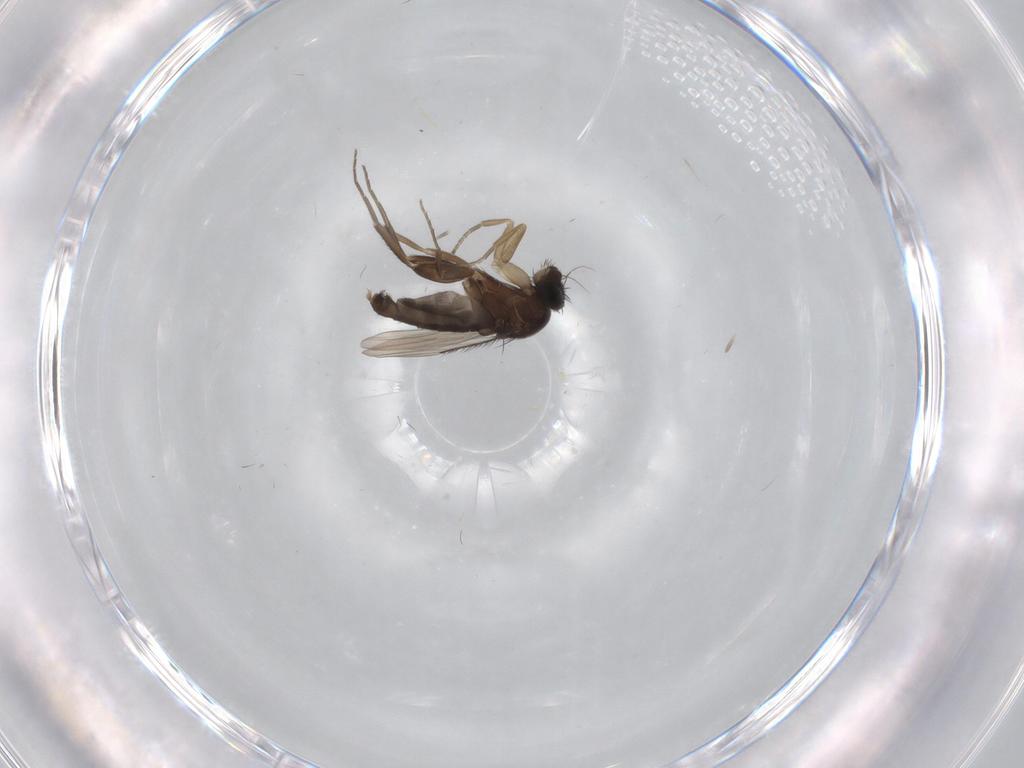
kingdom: Animalia
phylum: Arthropoda
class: Insecta
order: Diptera
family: Phoridae
